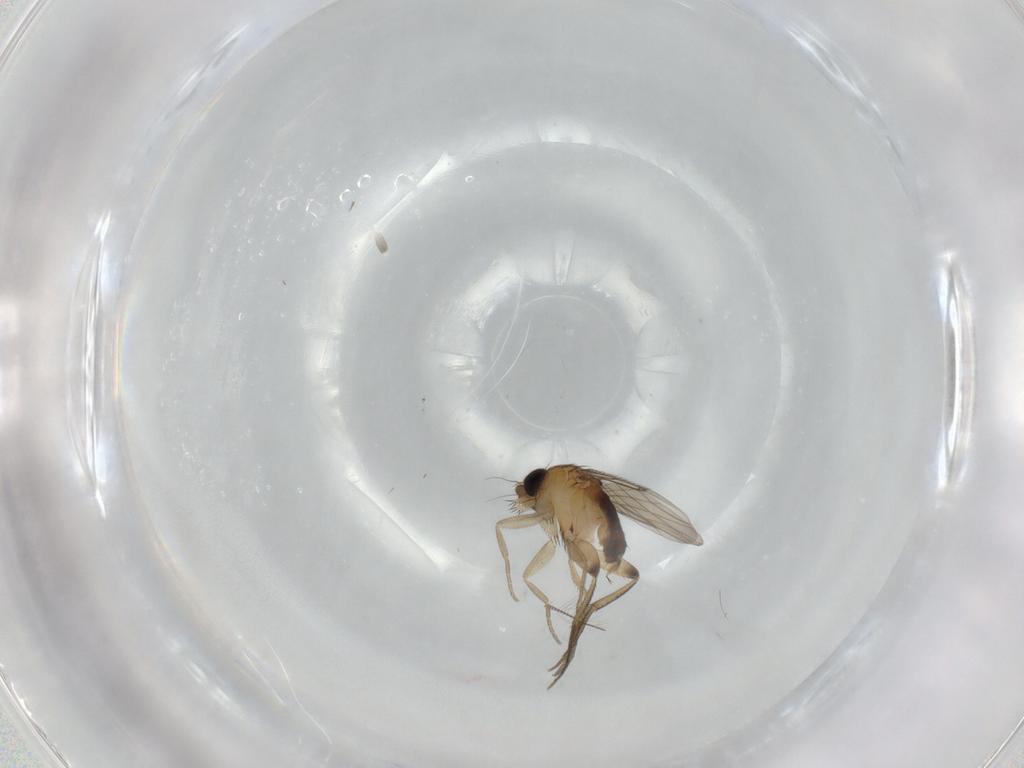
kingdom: Animalia
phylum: Arthropoda
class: Insecta
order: Diptera
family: Micropezidae
